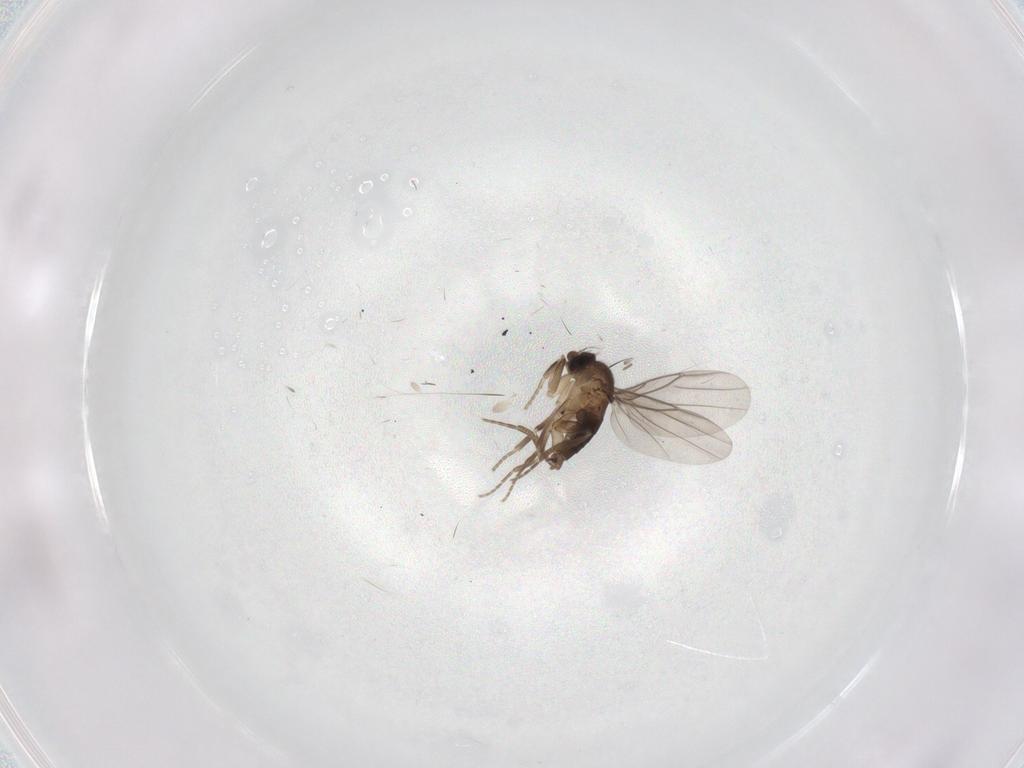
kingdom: Animalia
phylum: Arthropoda
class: Insecta
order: Diptera
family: Phoridae
